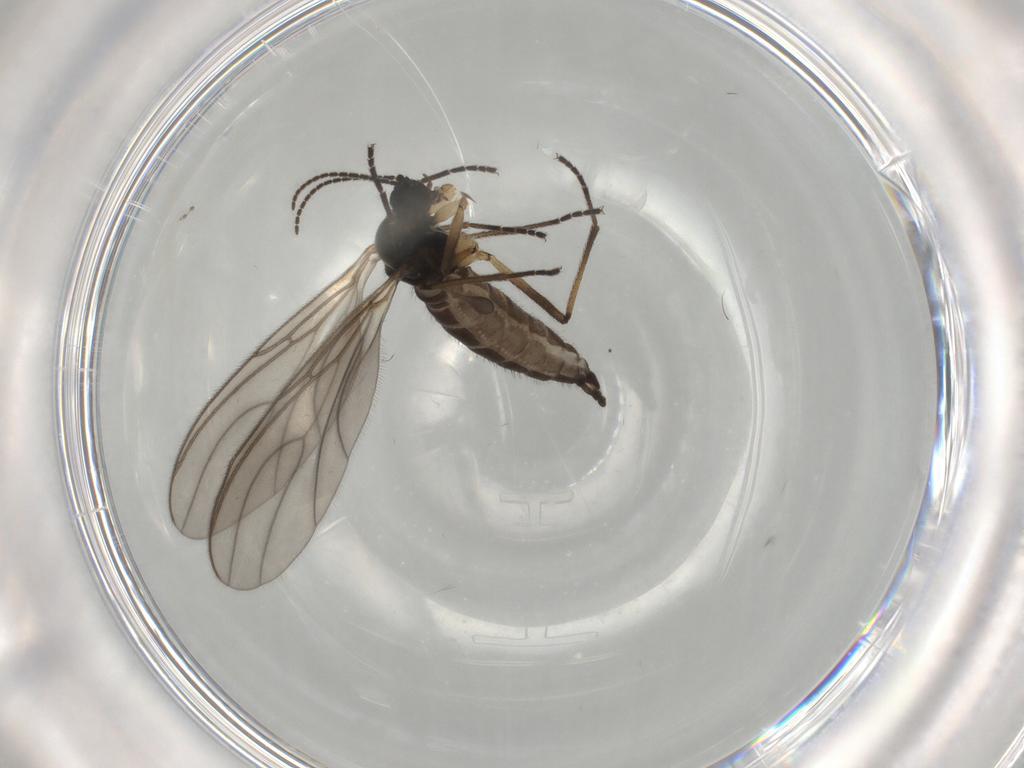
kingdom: Animalia
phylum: Arthropoda
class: Insecta
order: Diptera
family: Sciaridae
